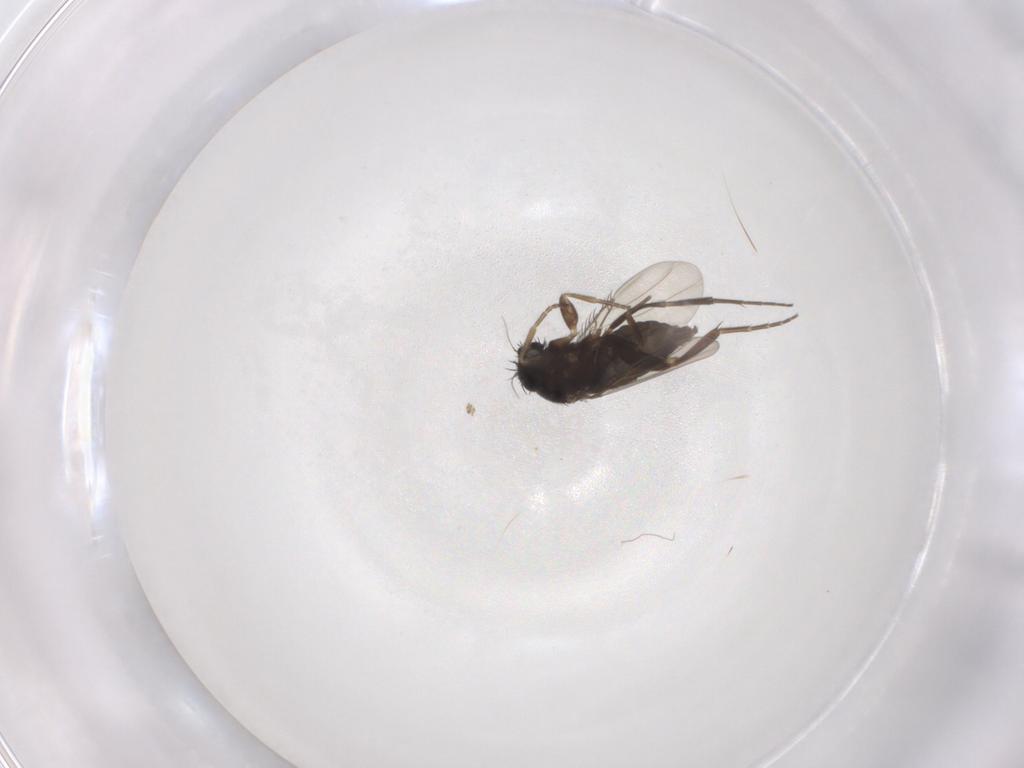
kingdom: Animalia
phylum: Arthropoda
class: Insecta
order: Diptera
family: Phoridae
